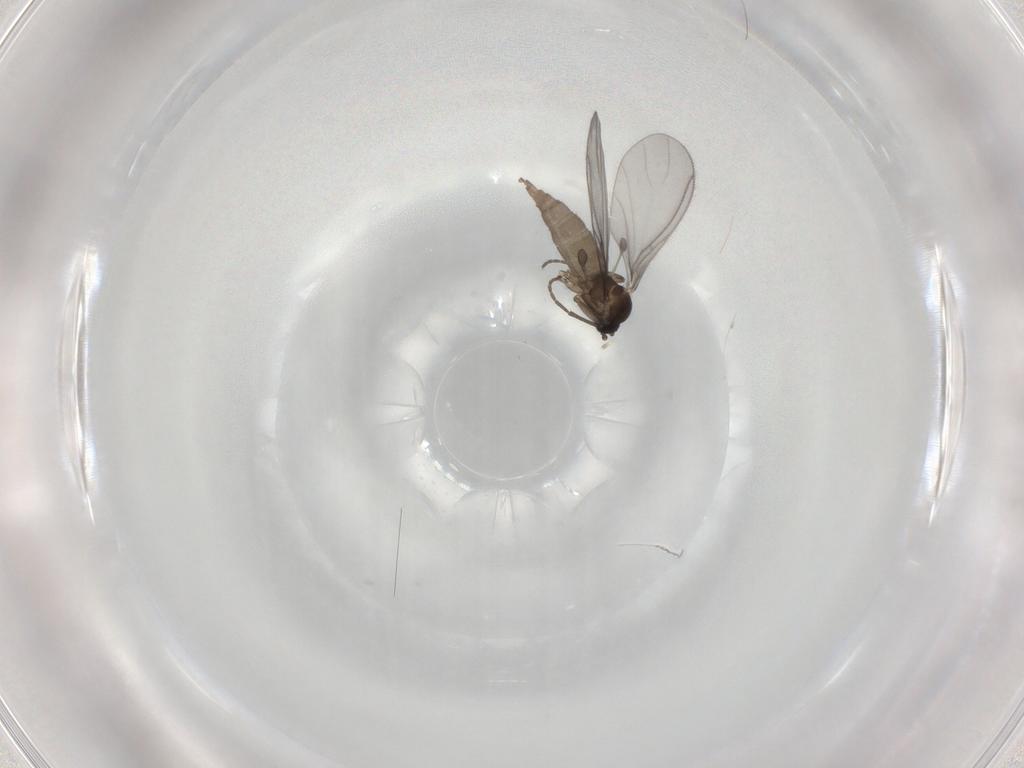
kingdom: Animalia
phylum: Arthropoda
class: Insecta
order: Diptera
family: Sciaridae
